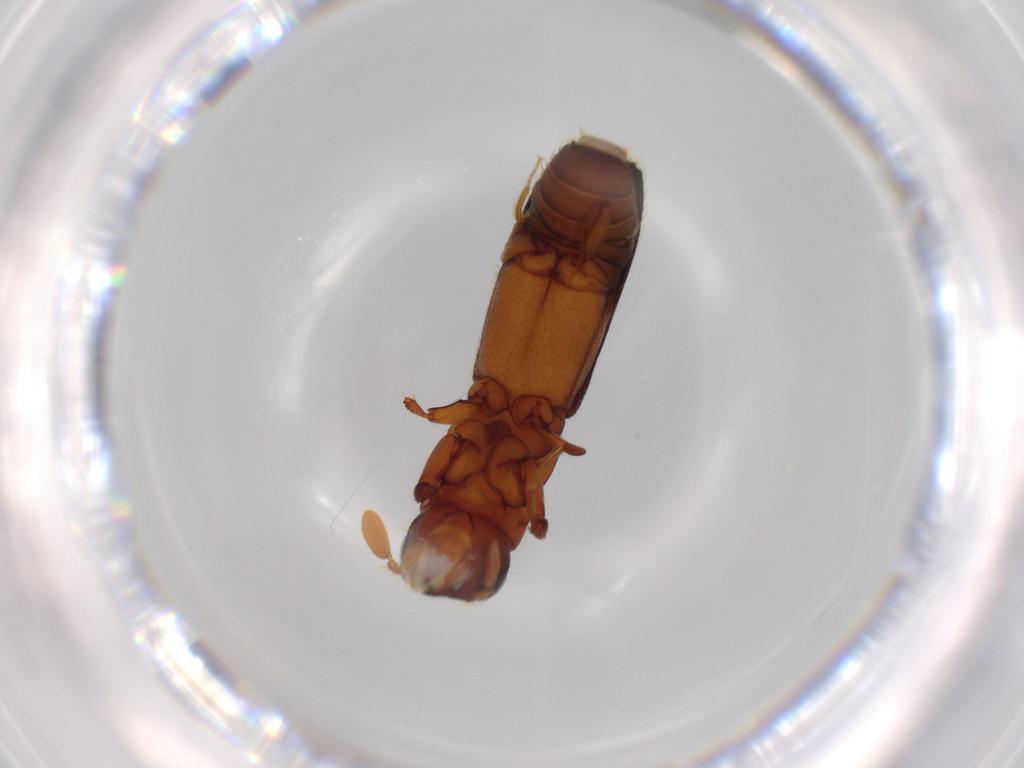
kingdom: Animalia
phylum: Arthropoda
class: Insecta
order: Coleoptera
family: Curculionidae
